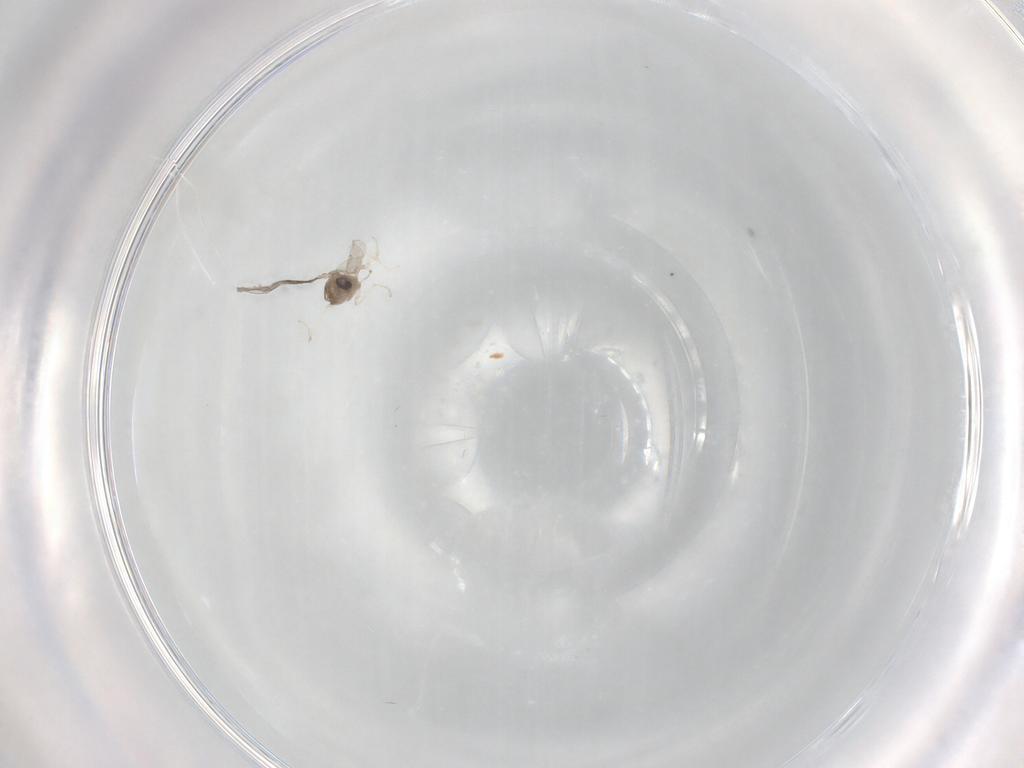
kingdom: Animalia
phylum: Arthropoda
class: Insecta
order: Diptera
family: Cecidomyiidae
